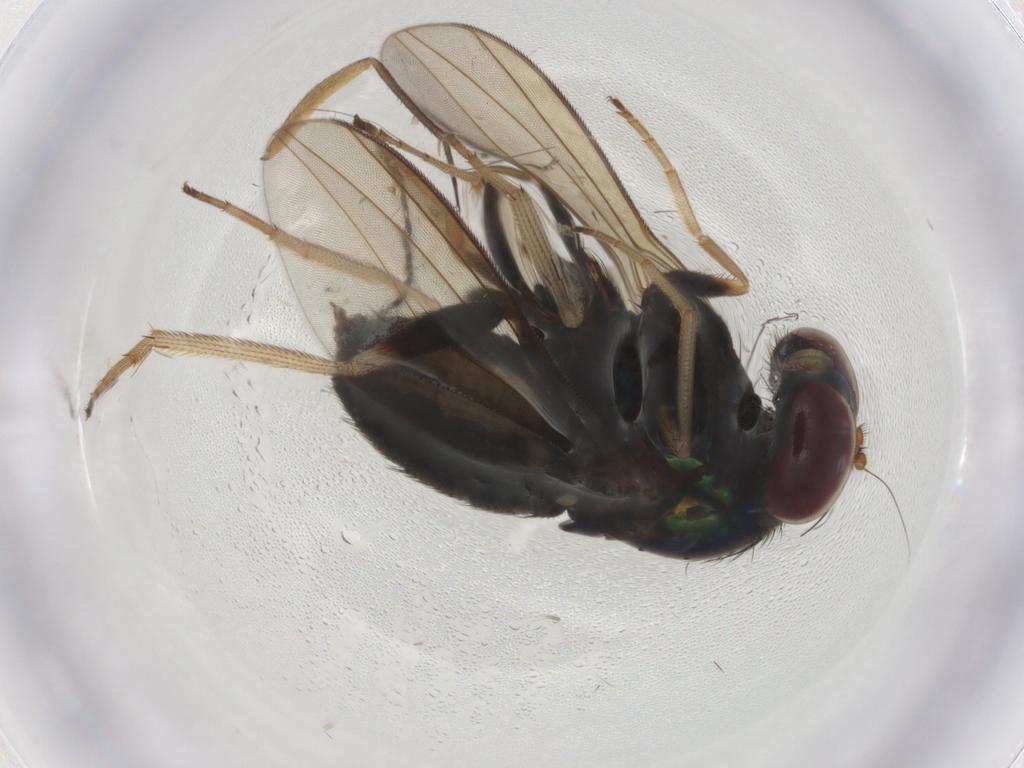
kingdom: Animalia
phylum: Arthropoda
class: Insecta
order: Diptera
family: Dolichopodidae
